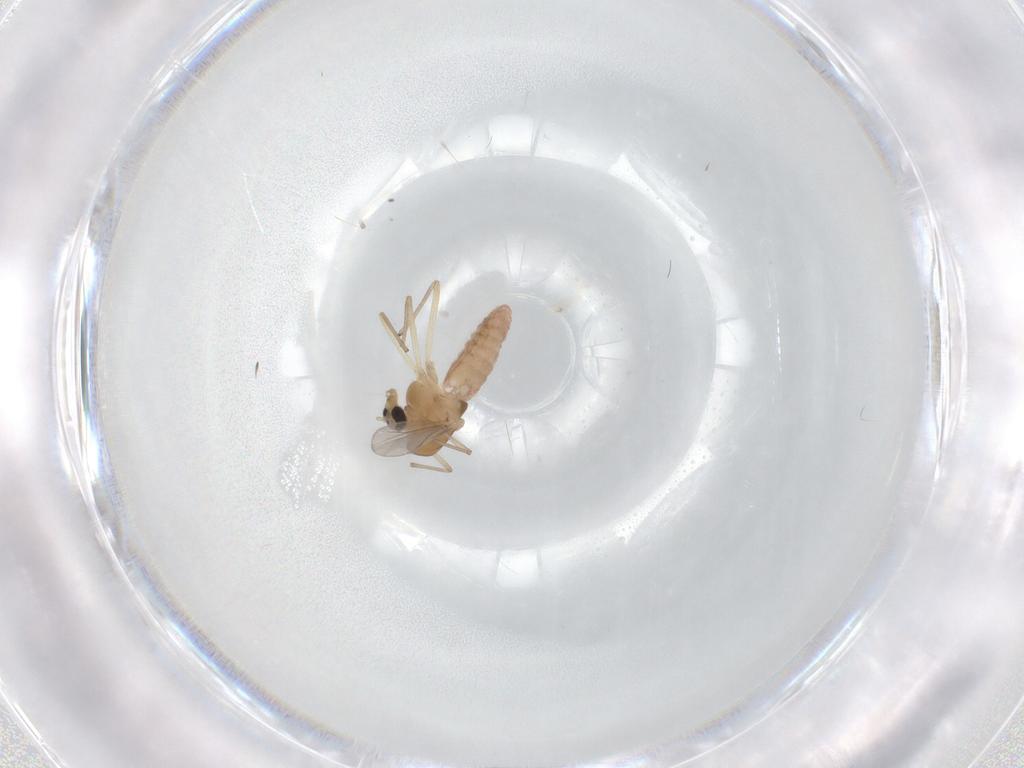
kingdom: Animalia
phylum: Arthropoda
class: Insecta
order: Diptera
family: Chironomidae
